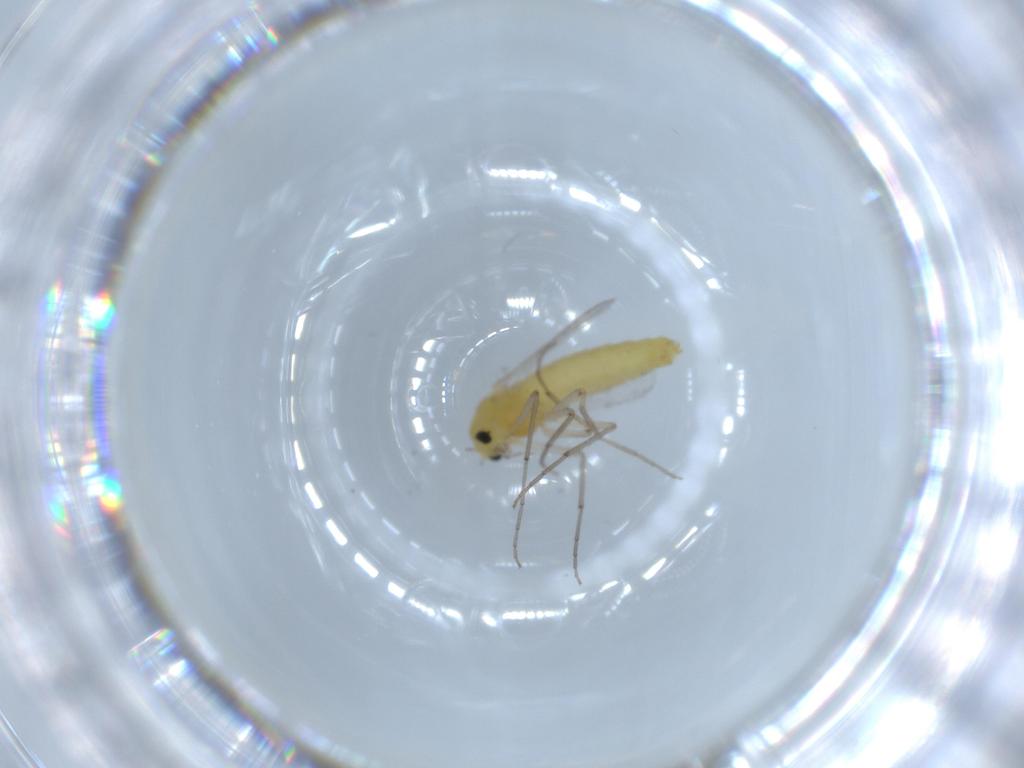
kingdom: Animalia
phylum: Arthropoda
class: Insecta
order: Diptera
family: Chironomidae
